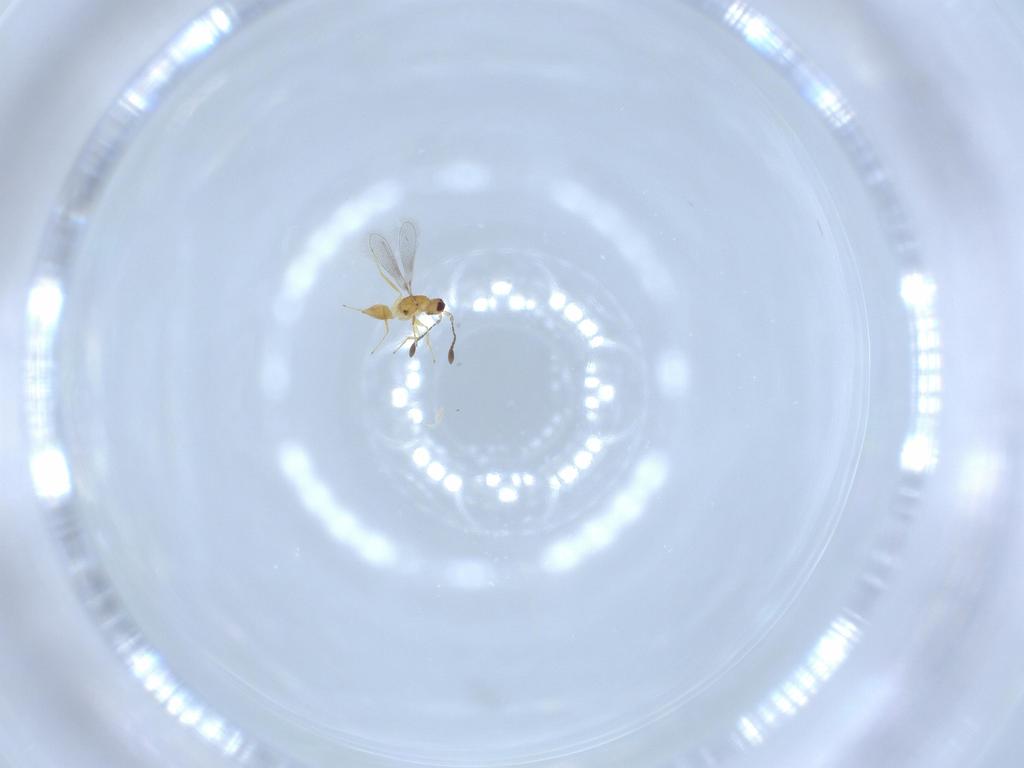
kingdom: Animalia
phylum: Arthropoda
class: Insecta
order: Hymenoptera
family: Mymaridae
